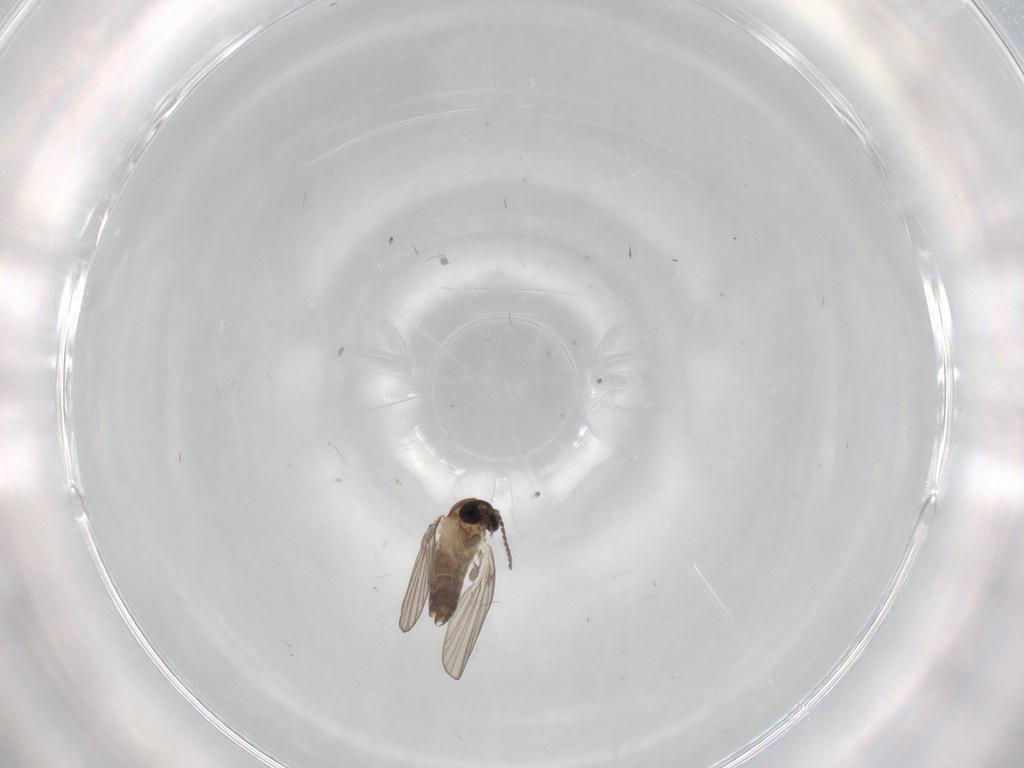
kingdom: Animalia
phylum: Arthropoda
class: Insecta
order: Diptera
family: Psychodidae
